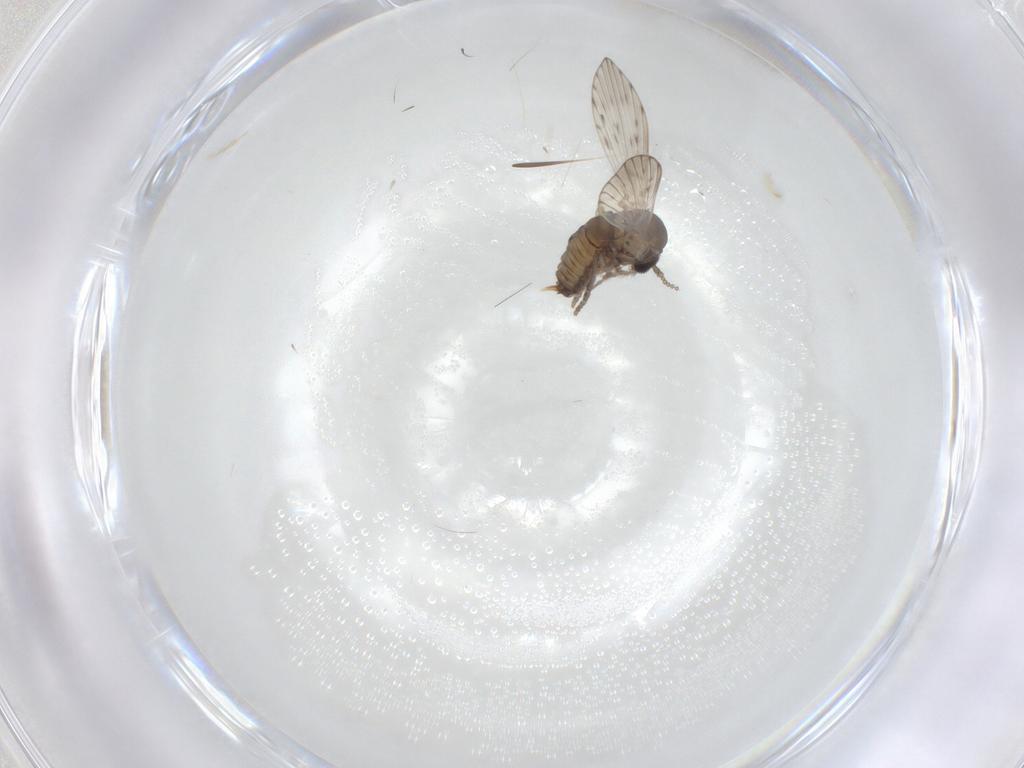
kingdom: Animalia
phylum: Arthropoda
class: Insecta
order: Diptera
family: Psychodidae
